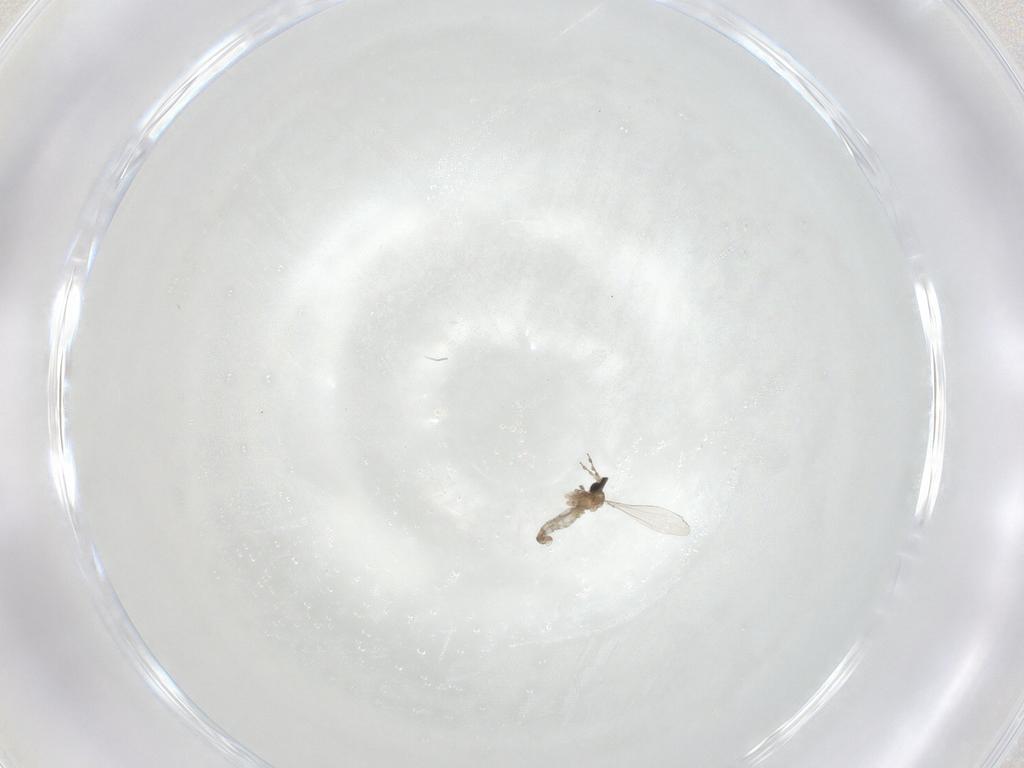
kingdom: Animalia
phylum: Arthropoda
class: Insecta
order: Diptera
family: Cecidomyiidae
